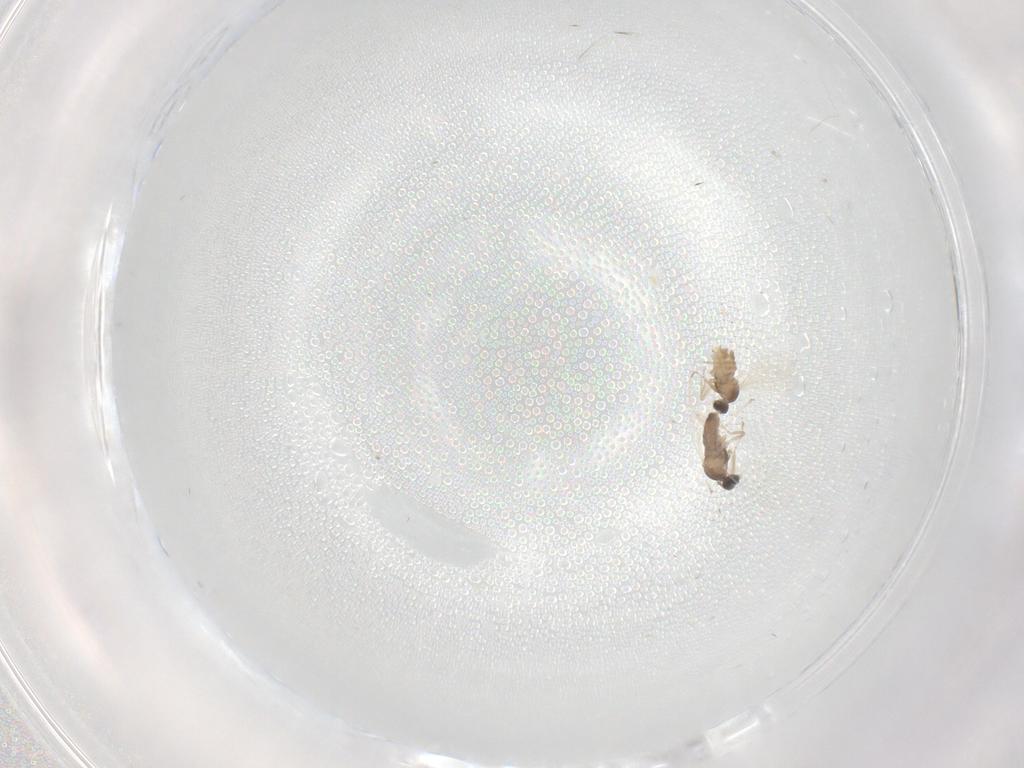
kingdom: Animalia
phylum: Arthropoda
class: Insecta
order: Diptera
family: Cecidomyiidae
